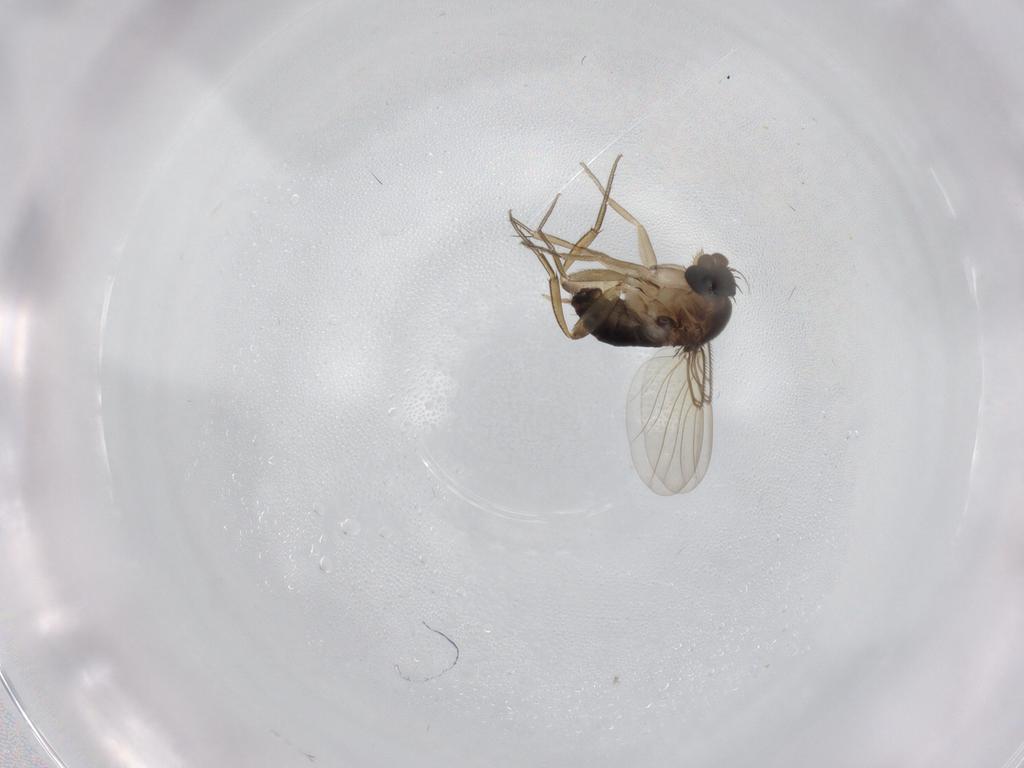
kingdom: Animalia
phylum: Arthropoda
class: Insecta
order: Diptera
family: Phoridae
